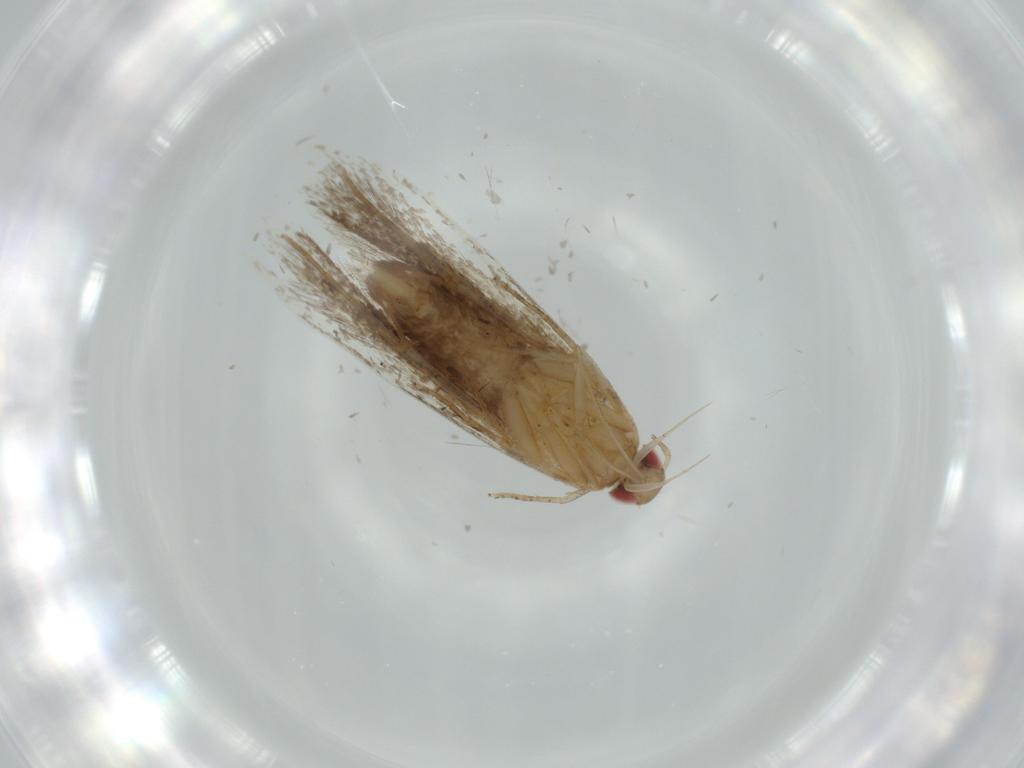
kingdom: Animalia
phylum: Arthropoda
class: Insecta
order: Lepidoptera
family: Tineidae
